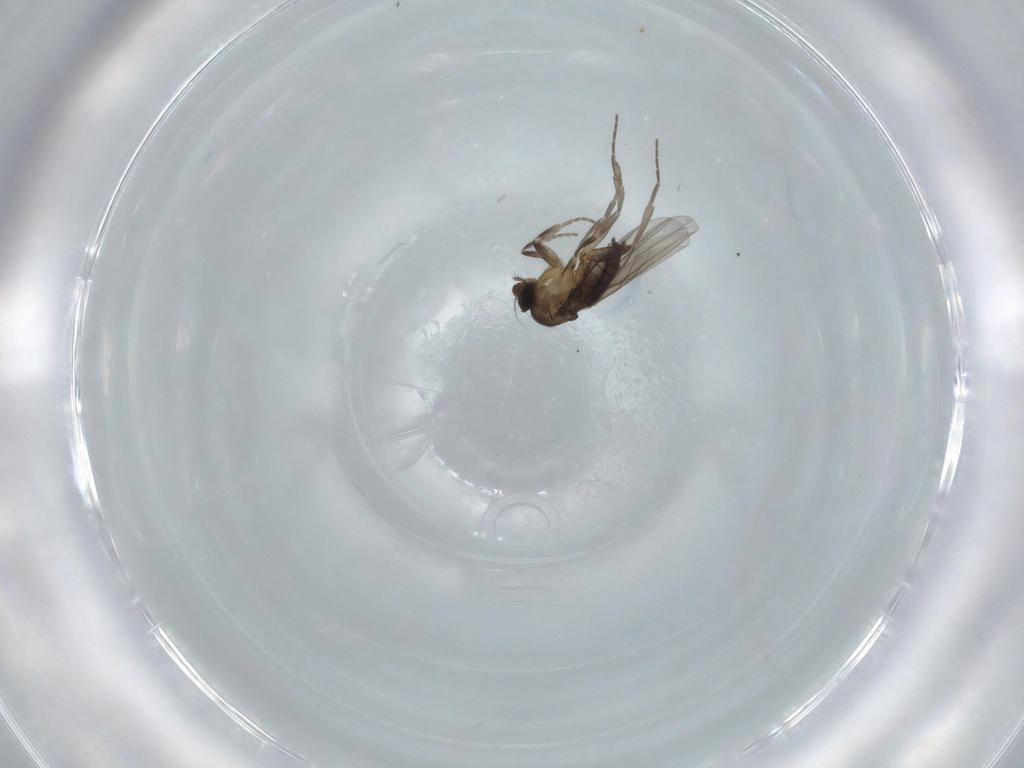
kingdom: Animalia
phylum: Arthropoda
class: Insecta
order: Diptera
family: Phoridae
